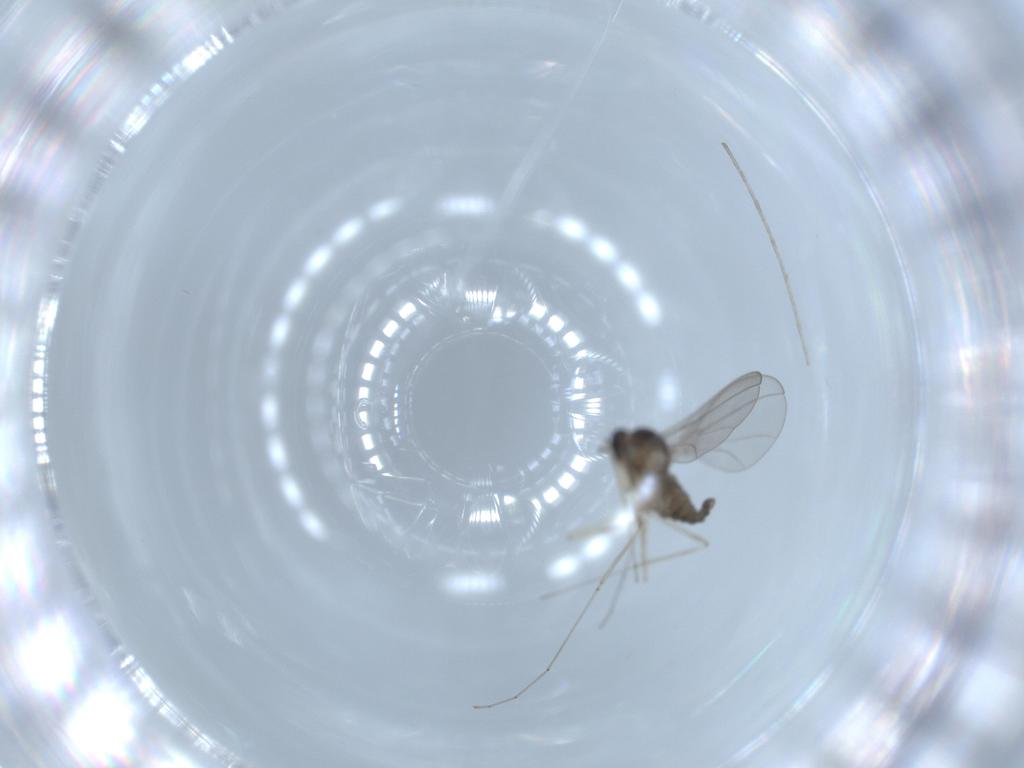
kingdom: Animalia
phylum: Arthropoda
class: Insecta
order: Diptera
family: Cecidomyiidae
